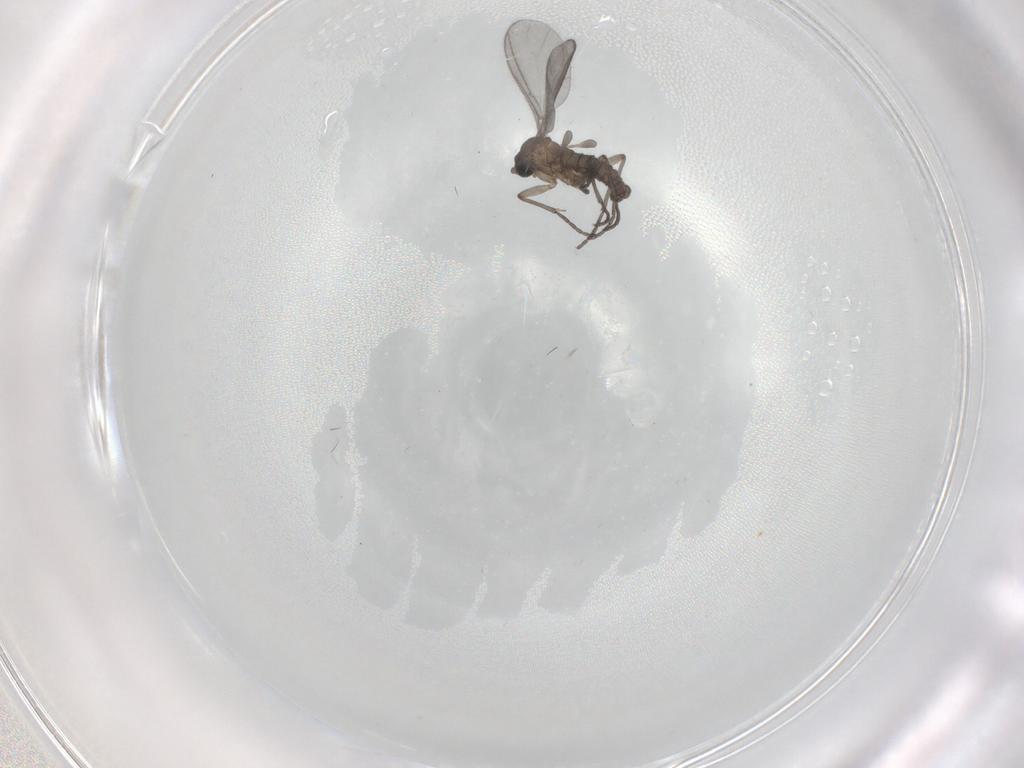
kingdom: Animalia
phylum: Arthropoda
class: Insecta
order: Diptera
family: Sciaridae
